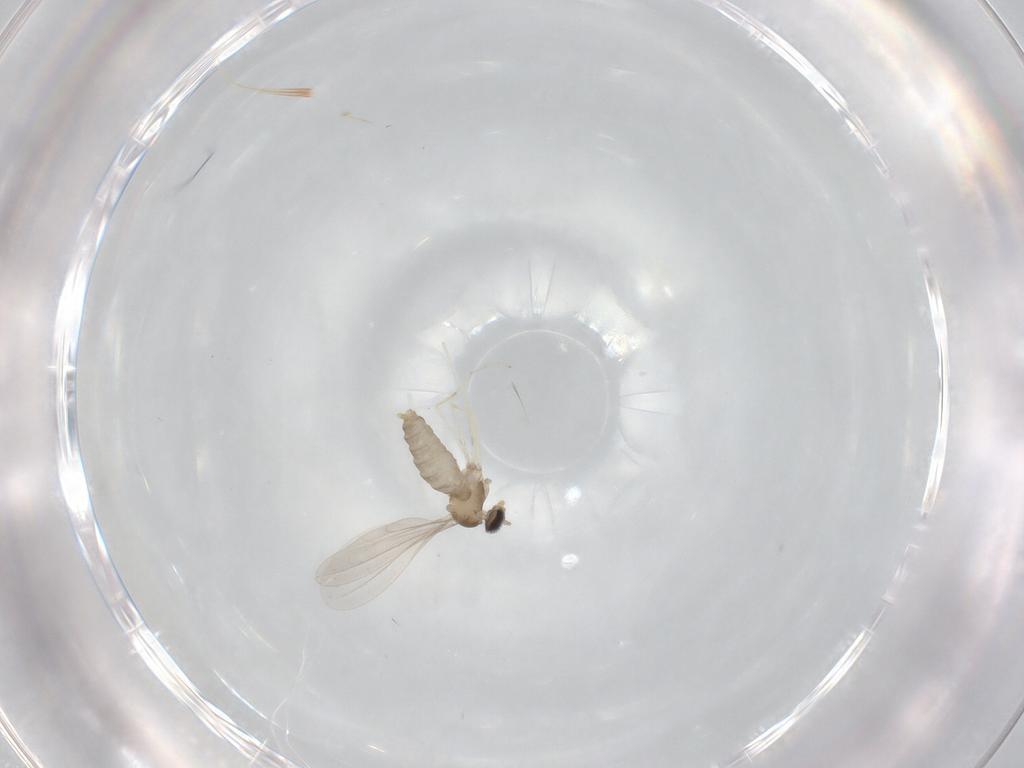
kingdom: Animalia
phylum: Arthropoda
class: Insecta
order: Diptera
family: Cecidomyiidae
